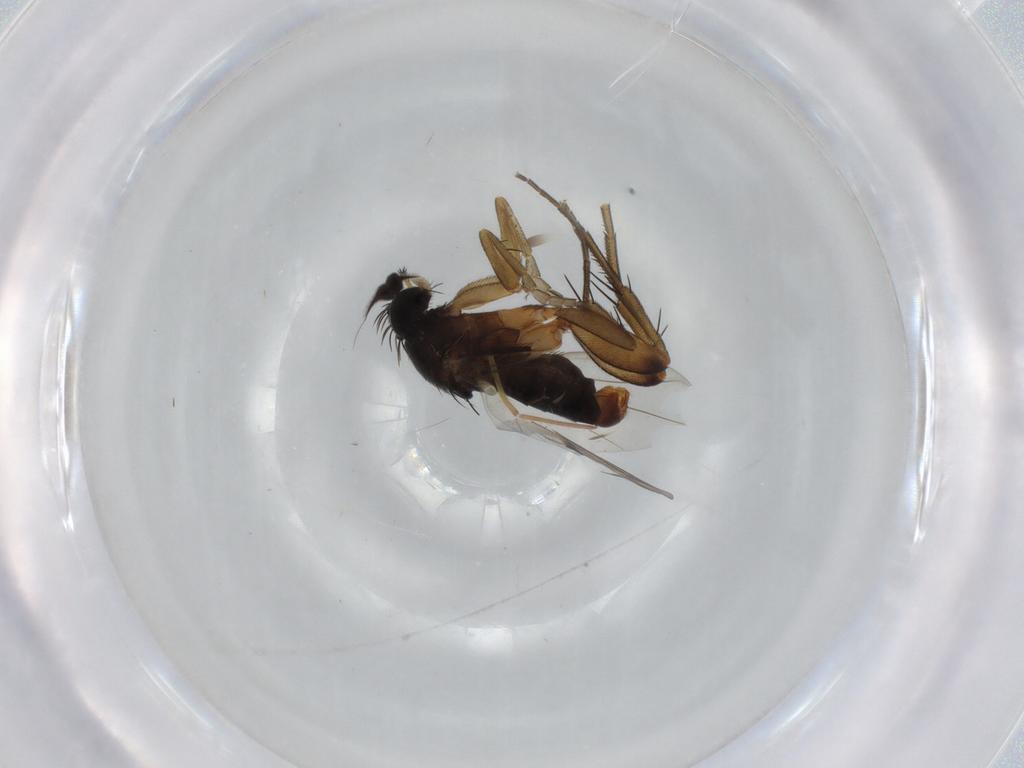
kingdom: Animalia
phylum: Arthropoda
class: Insecta
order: Diptera
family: Phoridae
